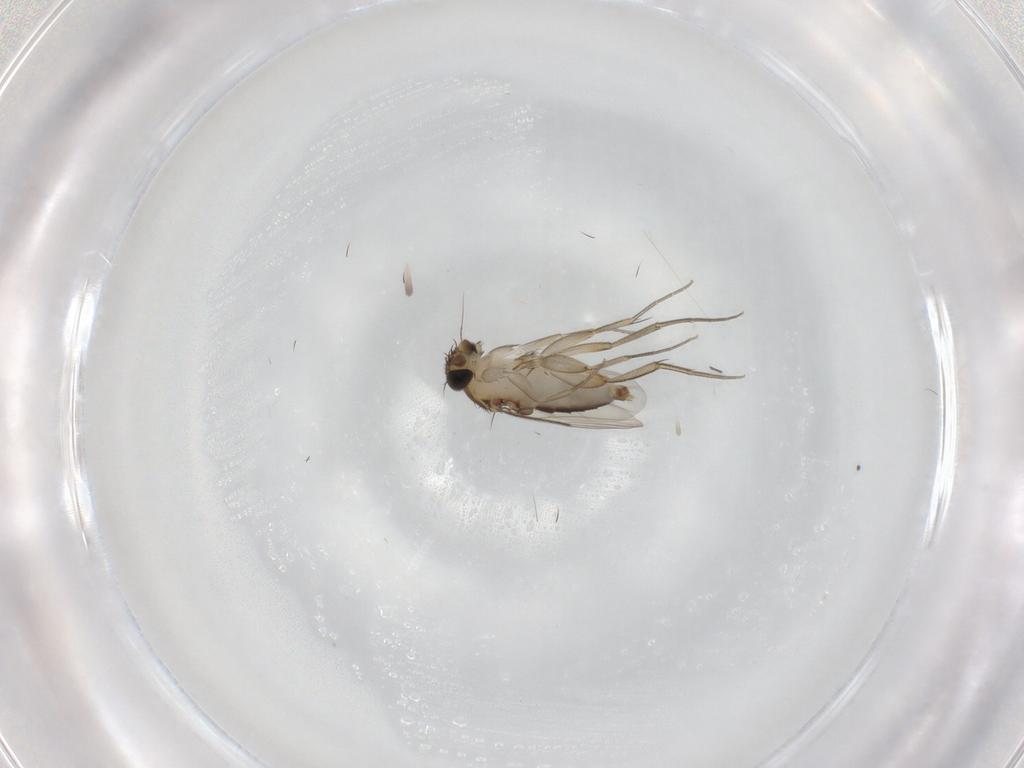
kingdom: Animalia
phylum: Arthropoda
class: Insecta
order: Diptera
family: Phoridae
